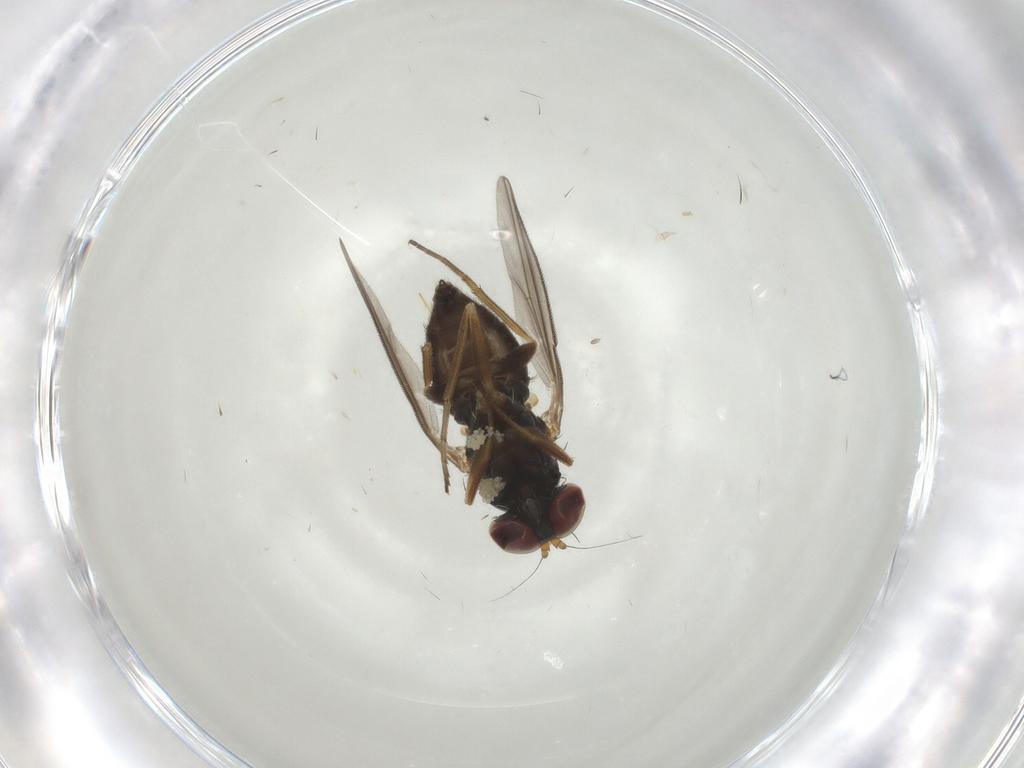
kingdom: Animalia
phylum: Arthropoda
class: Insecta
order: Diptera
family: Dolichopodidae
